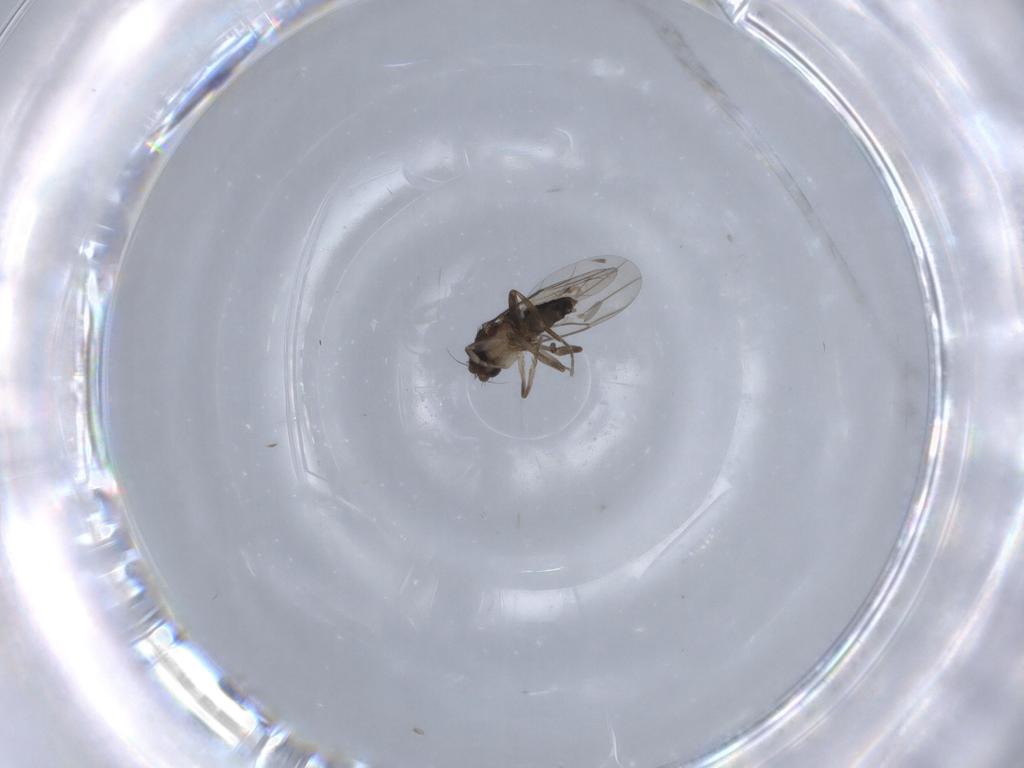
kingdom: Animalia
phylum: Arthropoda
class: Insecta
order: Diptera
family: Phoridae
